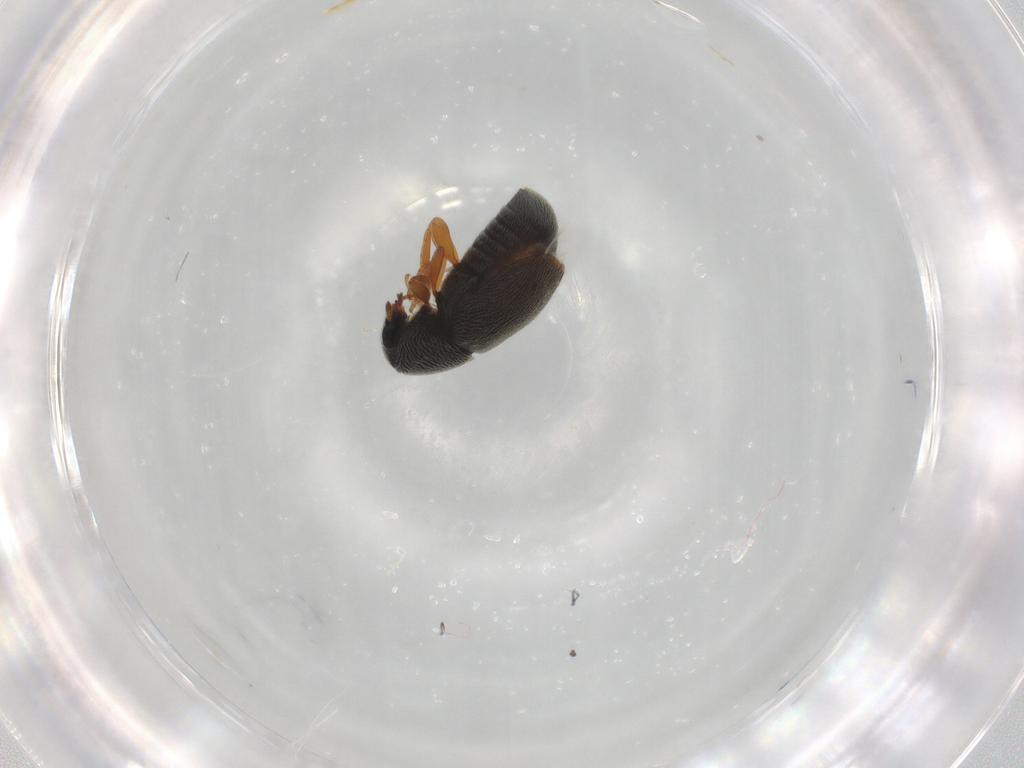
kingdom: Animalia
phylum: Arthropoda
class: Insecta
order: Coleoptera
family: Anthribidae
